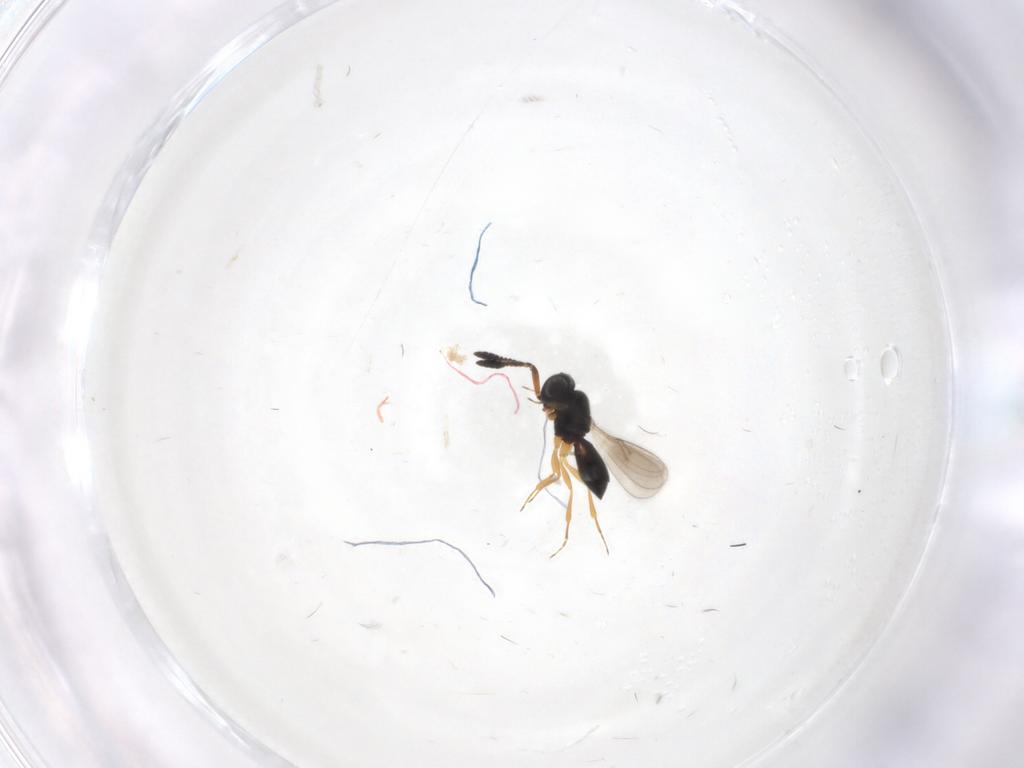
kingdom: Animalia
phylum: Arthropoda
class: Insecta
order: Hymenoptera
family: Scelionidae
